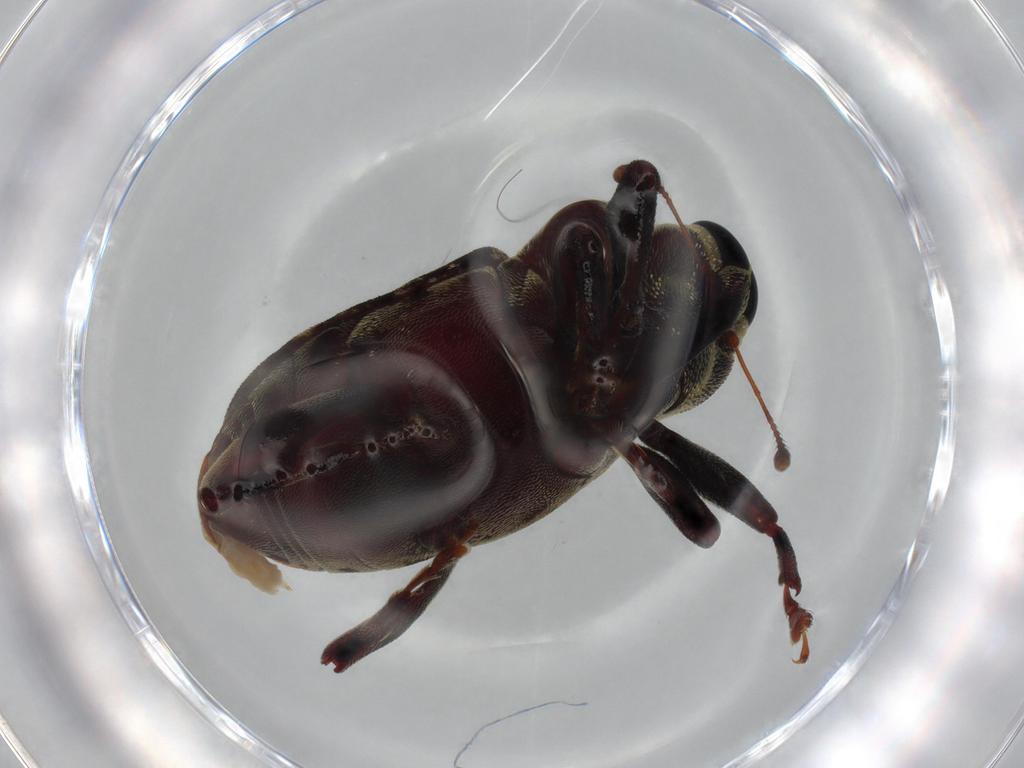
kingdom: Animalia
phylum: Arthropoda
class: Insecta
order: Coleoptera
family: Curculionidae
